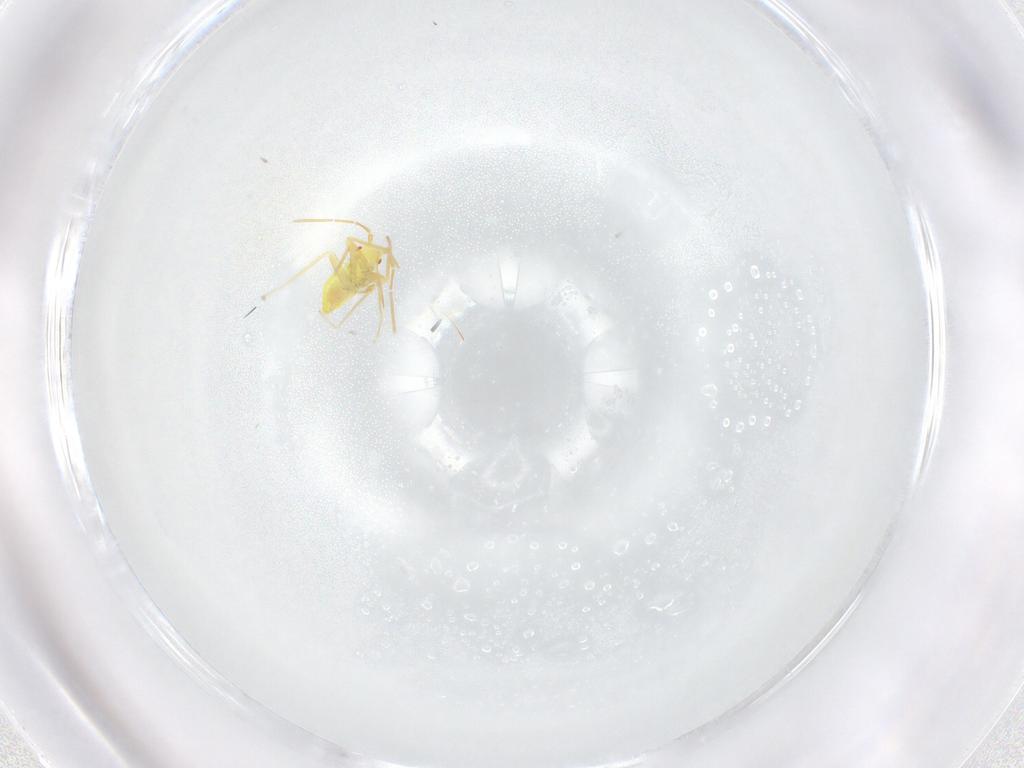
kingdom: Animalia
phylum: Arthropoda
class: Insecta
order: Hemiptera
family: Miridae
